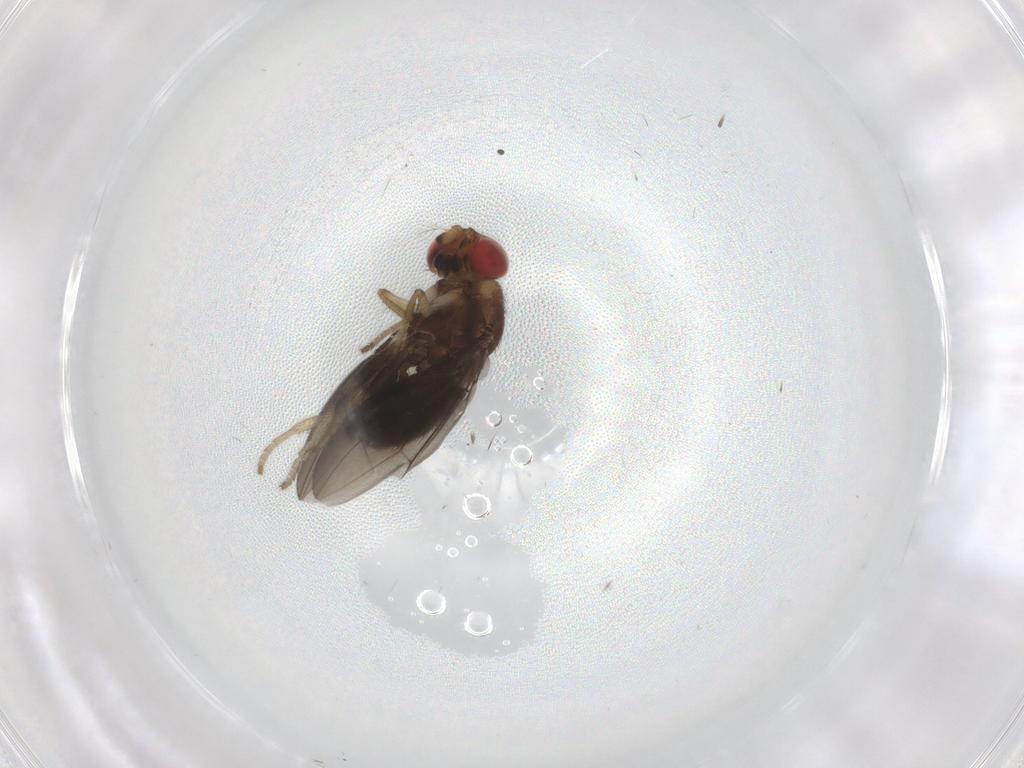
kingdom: Animalia
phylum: Arthropoda
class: Insecta
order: Diptera
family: Drosophilidae
